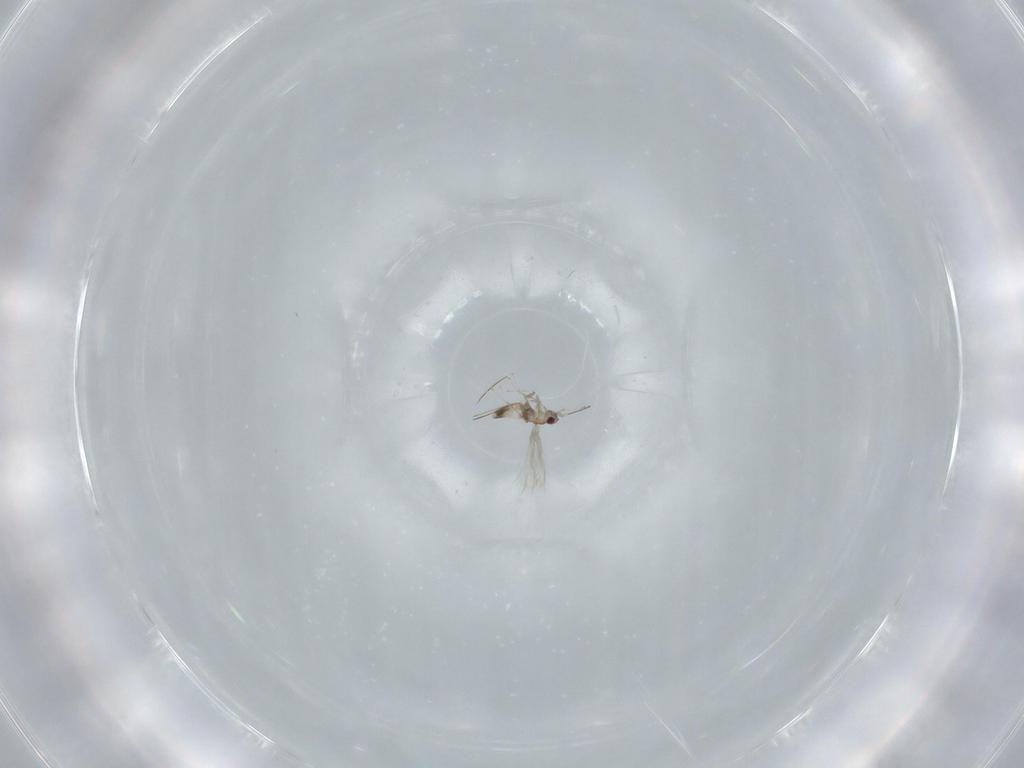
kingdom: Animalia
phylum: Arthropoda
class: Insecta
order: Hymenoptera
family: Mymaridae
